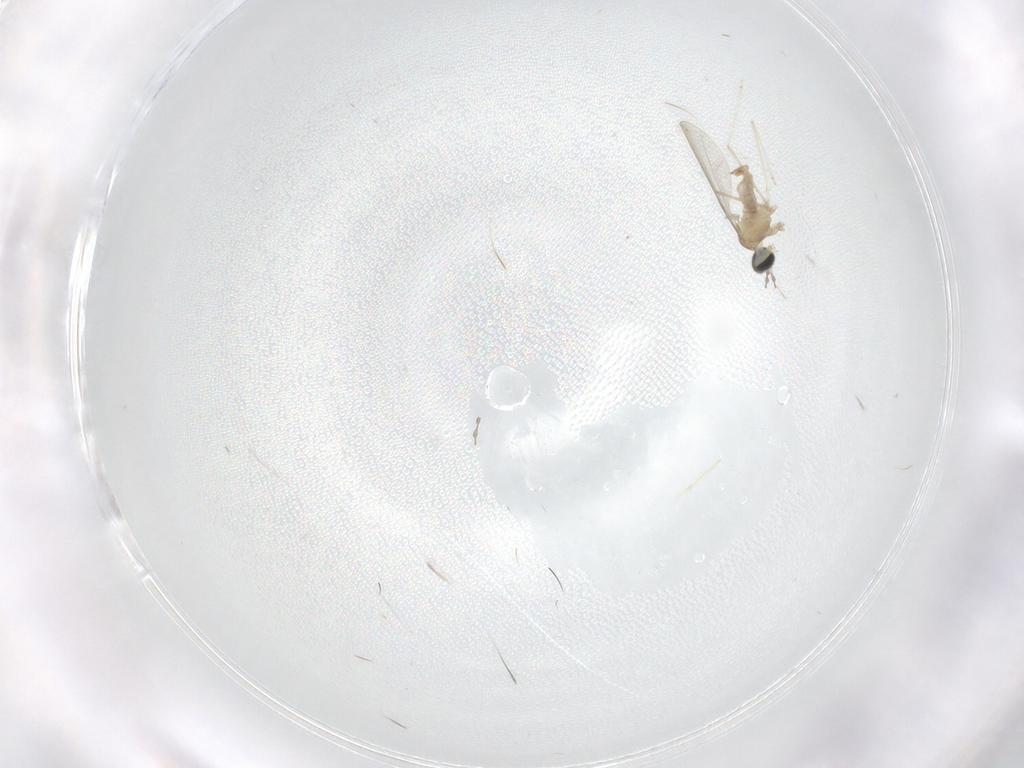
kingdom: Animalia
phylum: Arthropoda
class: Insecta
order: Diptera
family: Cecidomyiidae
